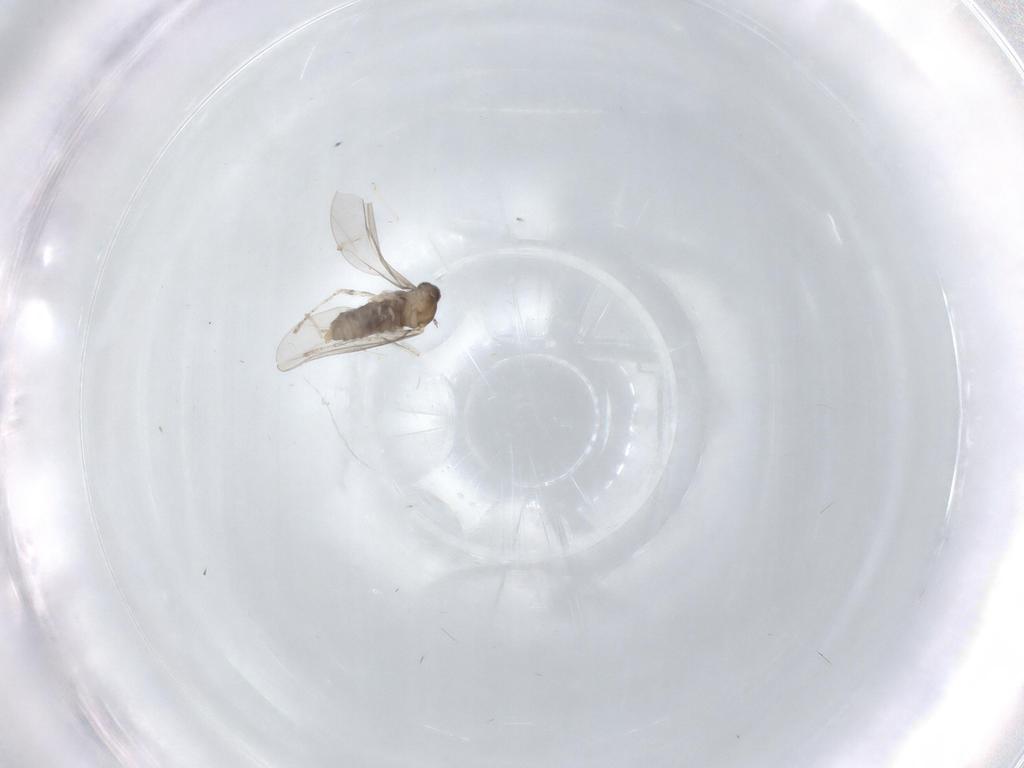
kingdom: Animalia
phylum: Arthropoda
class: Insecta
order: Diptera
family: Cecidomyiidae
